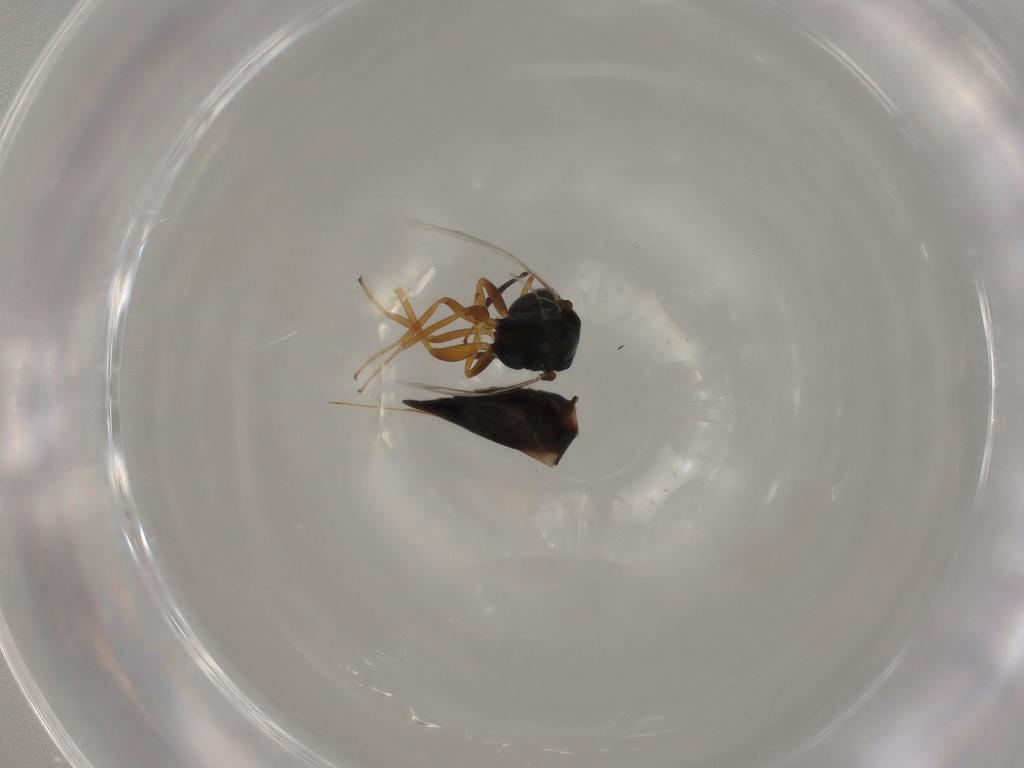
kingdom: Animalia
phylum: Arthropoda
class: Insecta
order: Hymenoptera
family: Pteromalidae
